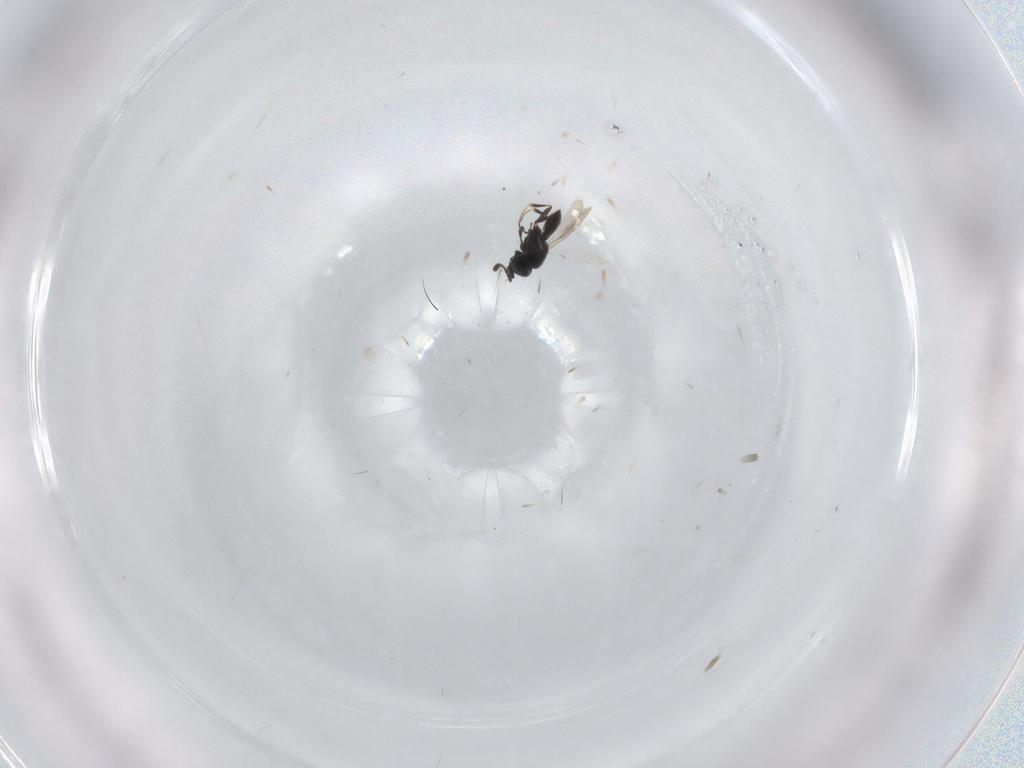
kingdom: Animalia
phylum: Arthropoda
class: Insecta
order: Hymenoptera
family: Scelionidae
